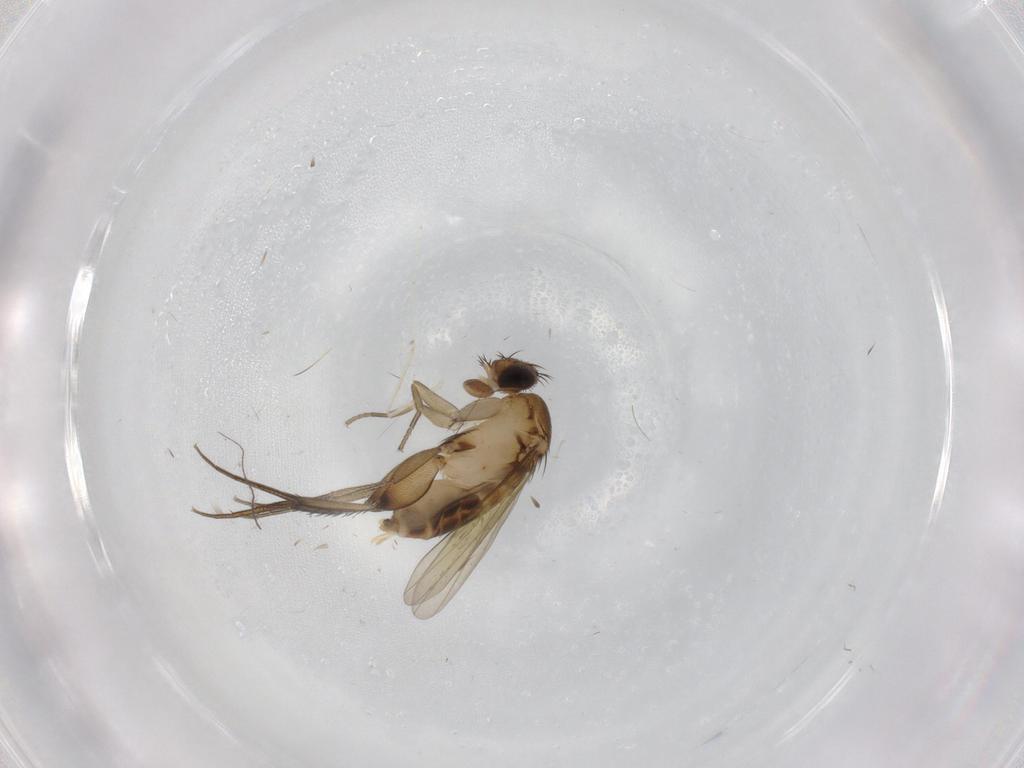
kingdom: Animalia
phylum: Arthropoda
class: Insecta
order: Diptera
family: Phoridae
